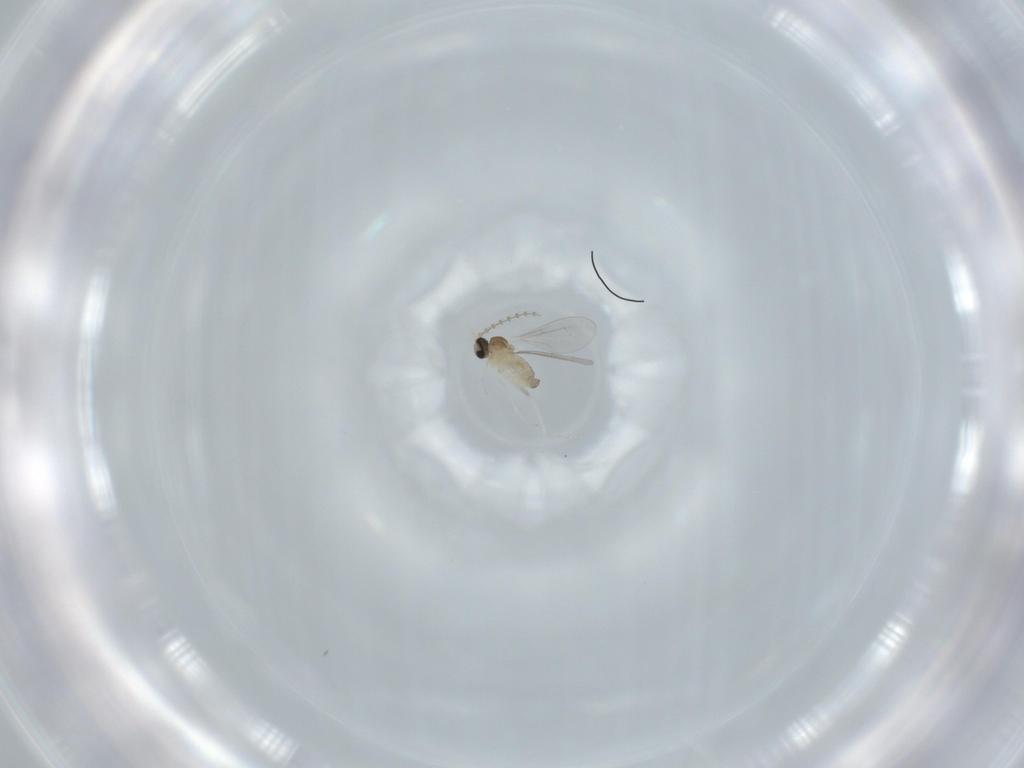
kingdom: Animalia
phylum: Arthropoda
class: Insecta
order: Diptera
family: Cecidomyiidae
